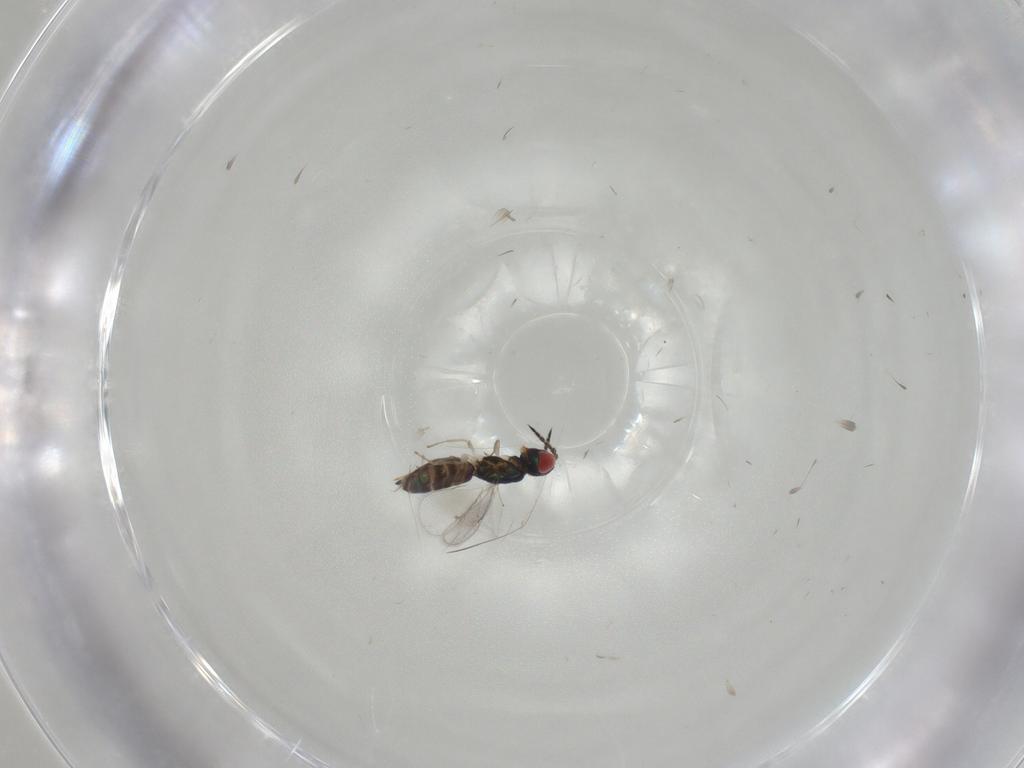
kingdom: Animalia
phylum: Arthropoda
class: Insecta
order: Hymenoptera
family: Eulophidae
